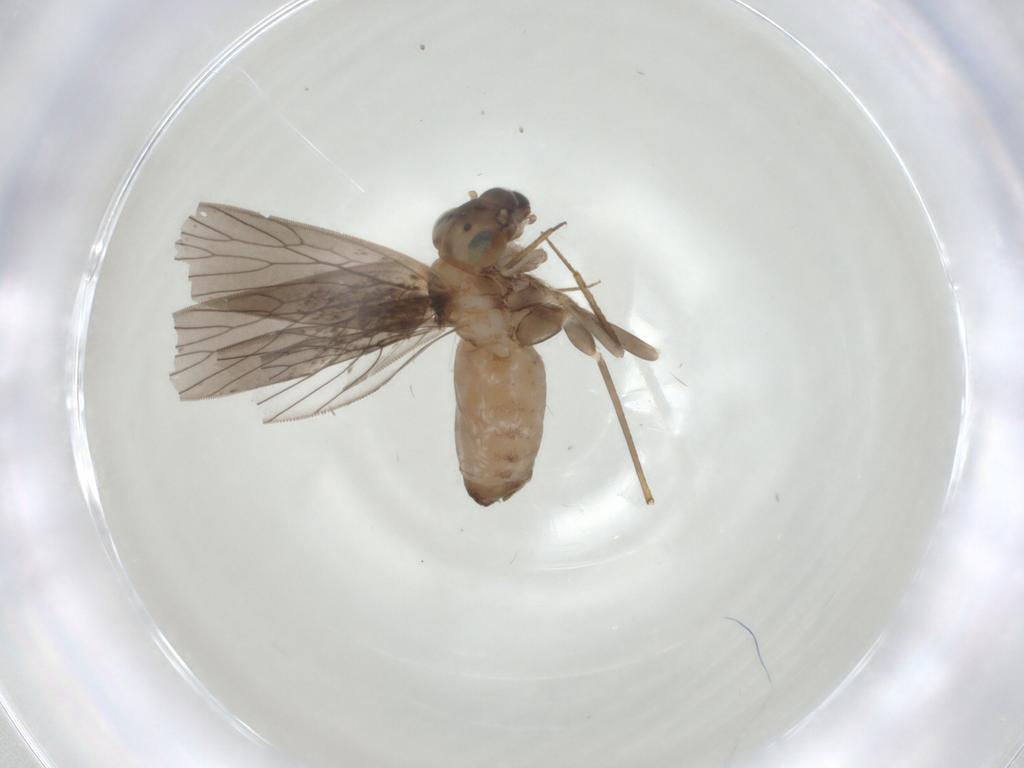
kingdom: Animalia
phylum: Arthropoda
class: Insecta
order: Psocodea
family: Lepidopsocidae
